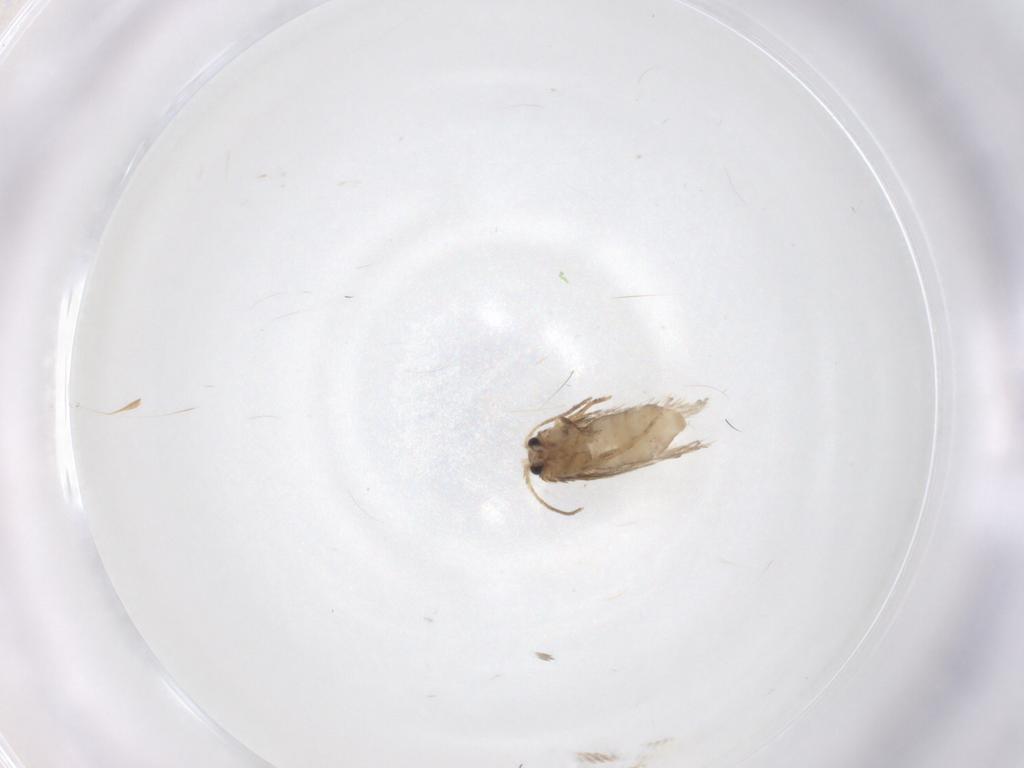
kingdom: Animalia
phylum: Arthropoda
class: Insecta
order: Lepidoptera
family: Nepticulidae
